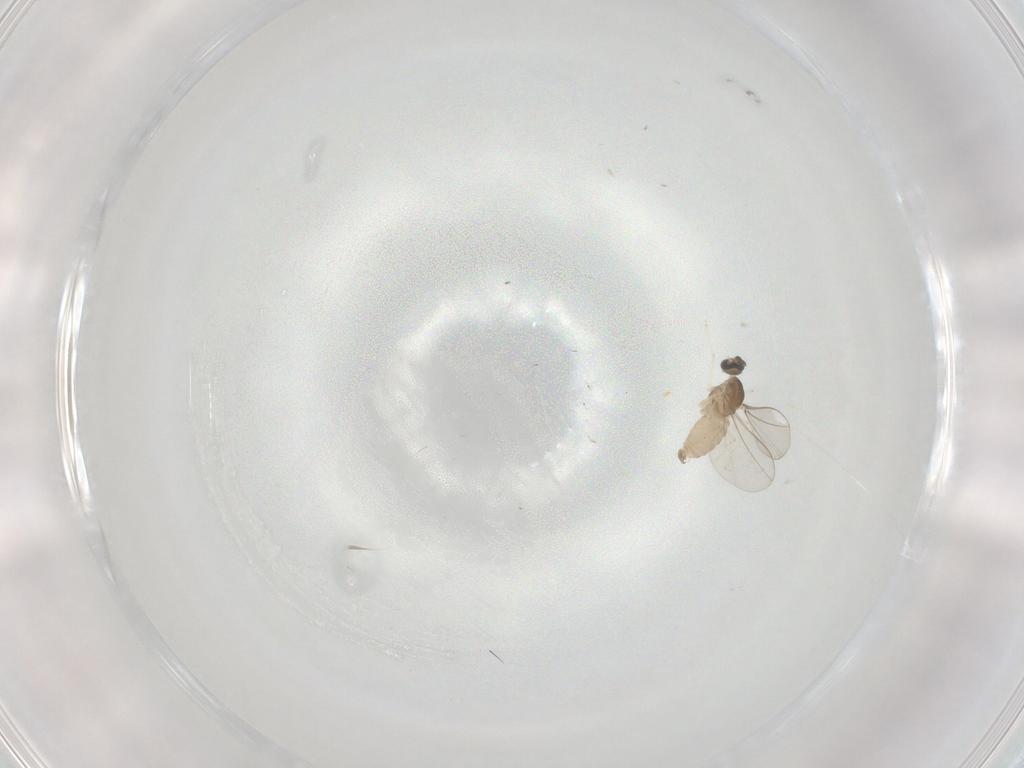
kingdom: Animalia
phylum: Arthropoda
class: Insecta
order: Diptera
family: Cecidomyiidae
